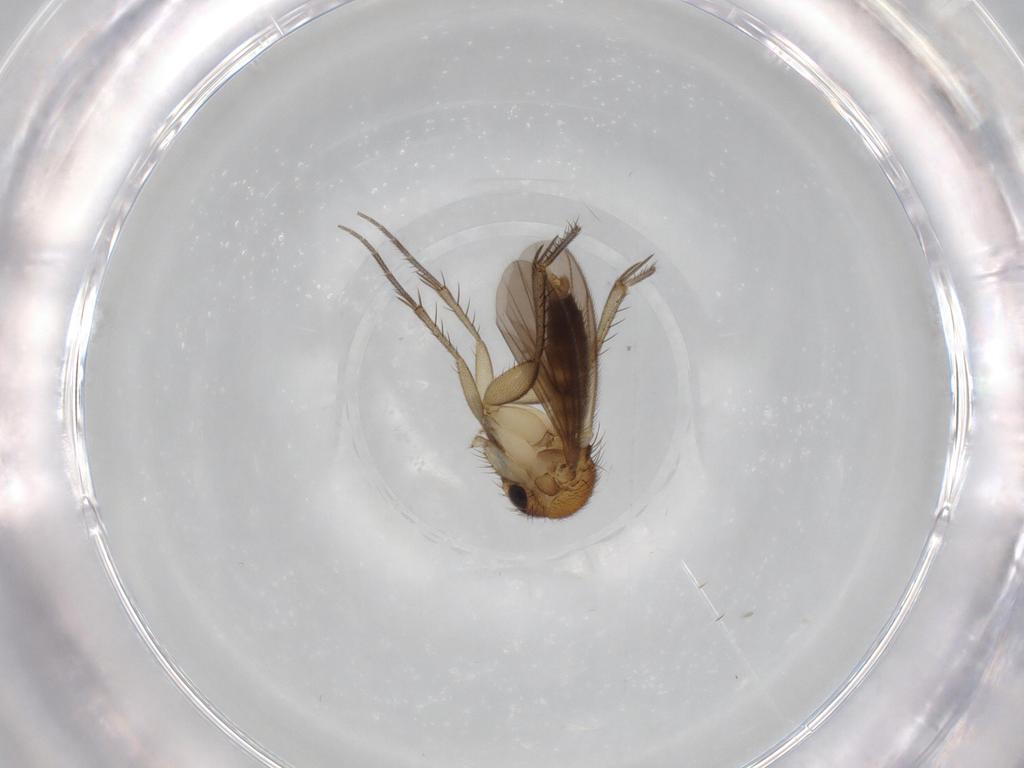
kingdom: Animalia
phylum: Arthropoda
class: Insecta
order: Diptera
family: Mycetophilidae
